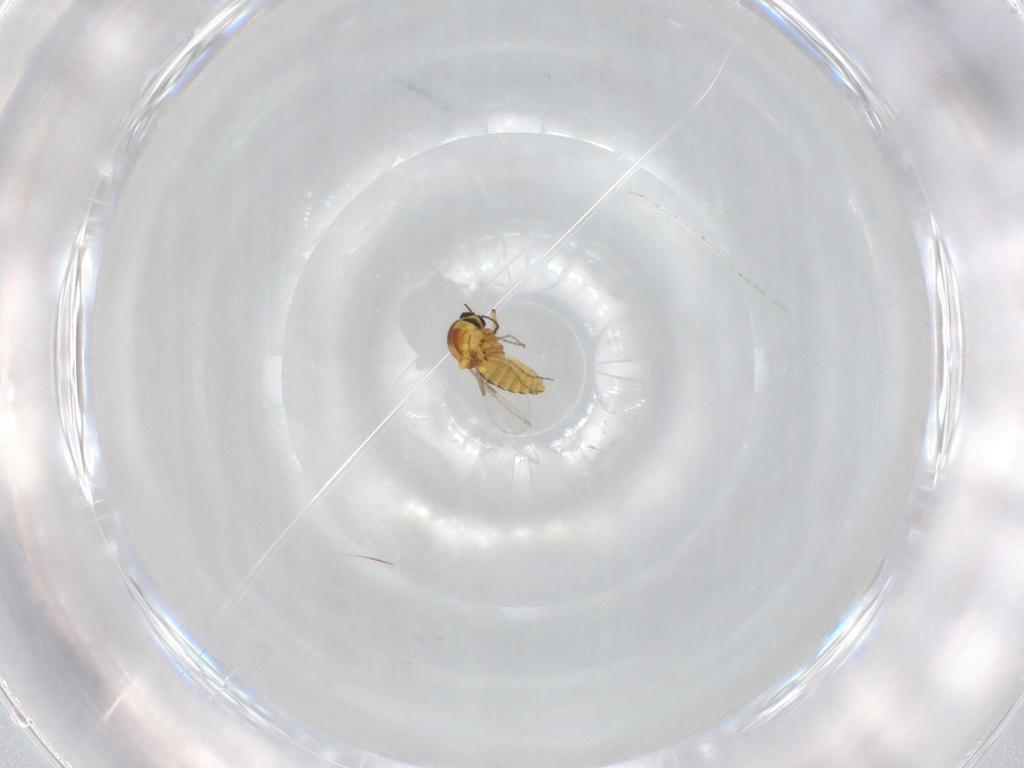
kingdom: Animalia
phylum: Arthropoda
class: Insecta
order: Diptera
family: Ceratopogonidae
